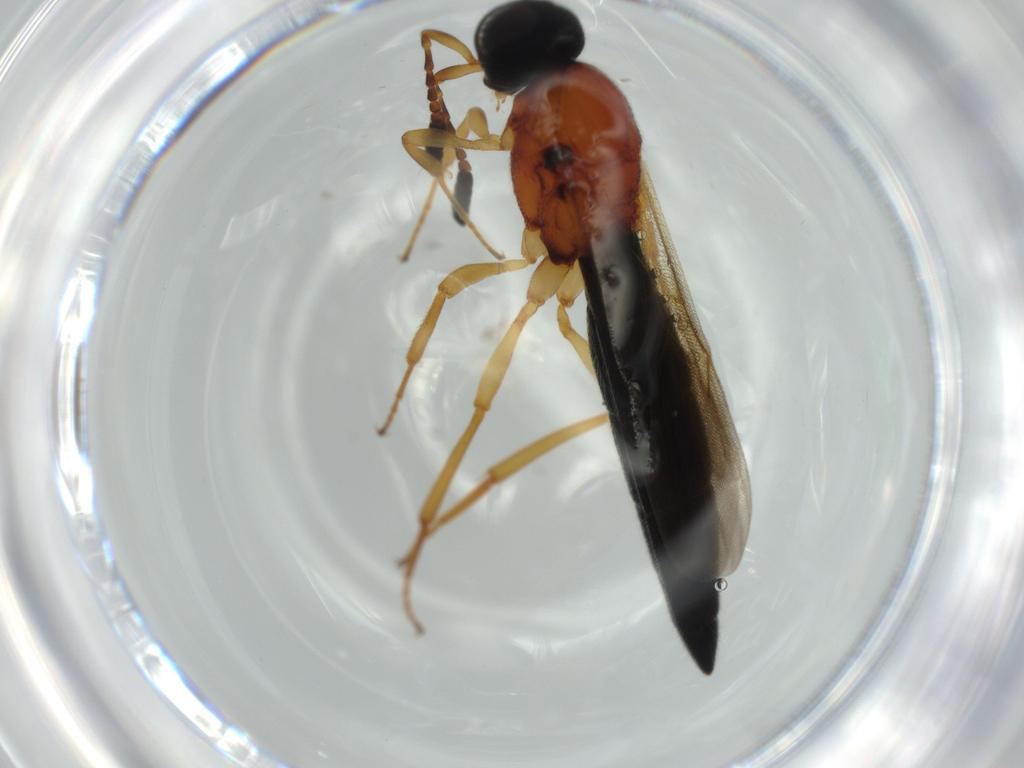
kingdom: Animalia
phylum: Arthropoda
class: Insecta
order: Hymenoptera
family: Scelionidae
